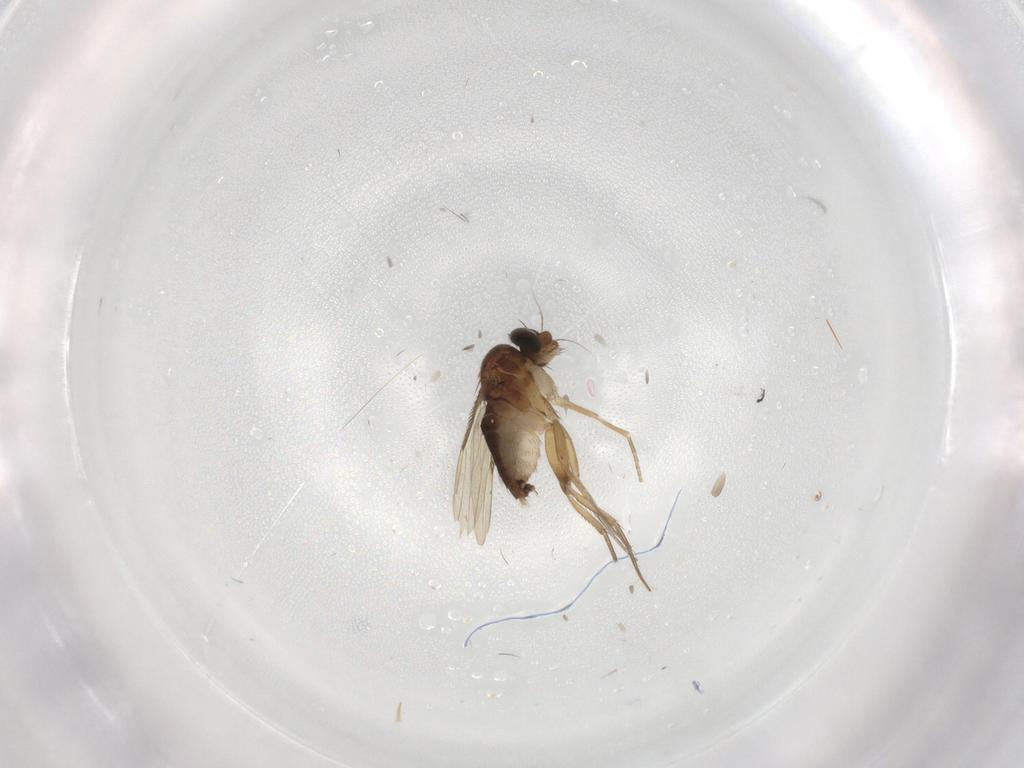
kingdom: Animalia
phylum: Arthropoda
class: Insecta
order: Diptera
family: Phoridae
